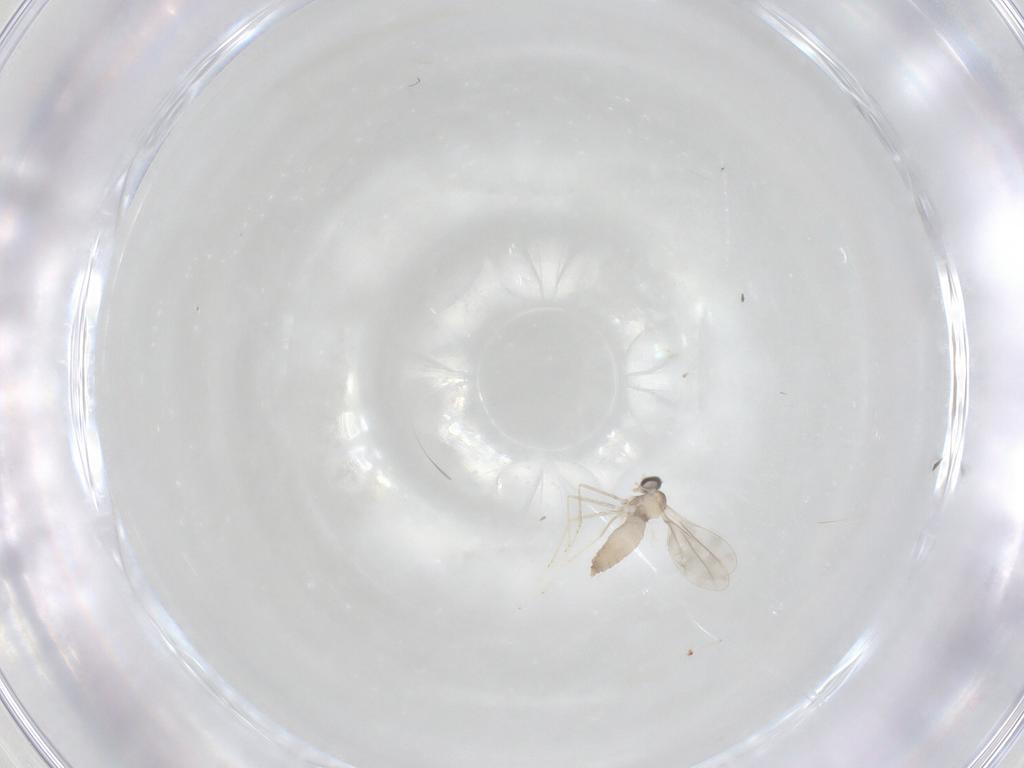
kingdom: Animalia
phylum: Arthropoda
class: Insecta
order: Diptera
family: Cecidomyiidae
